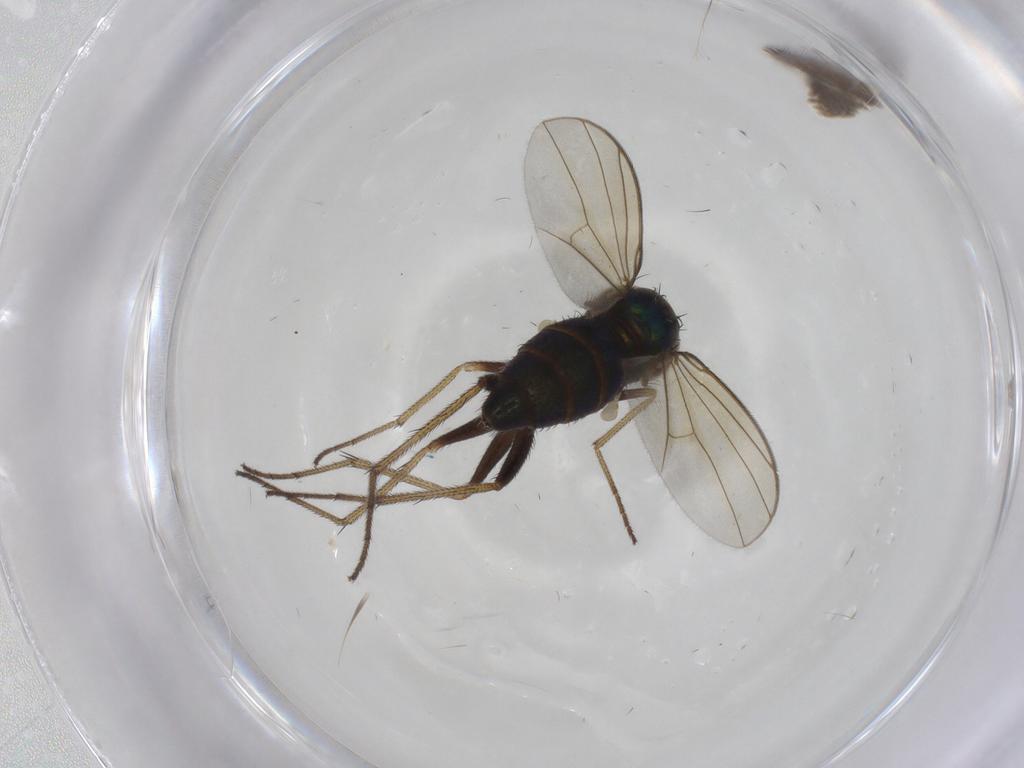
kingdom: Animalia
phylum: Arthropoda
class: Insecta
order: Diptera
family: Dolichopodidae
